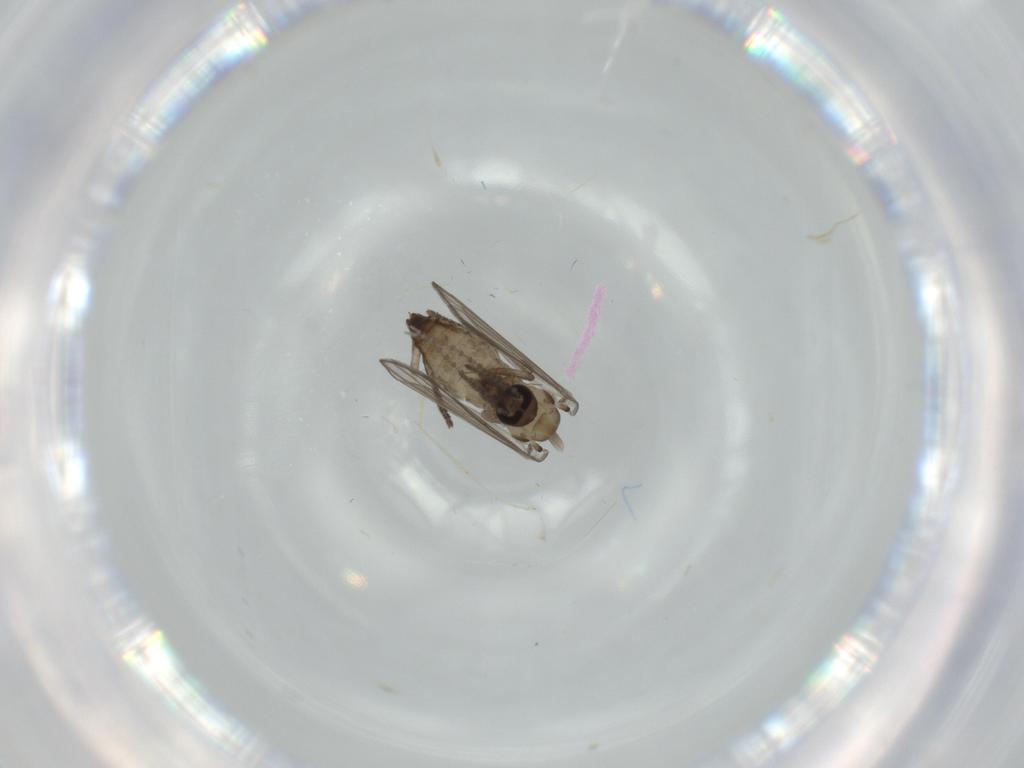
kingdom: Animalia
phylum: Arthropoda
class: Insecta
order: Diptera
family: Psychodidae
